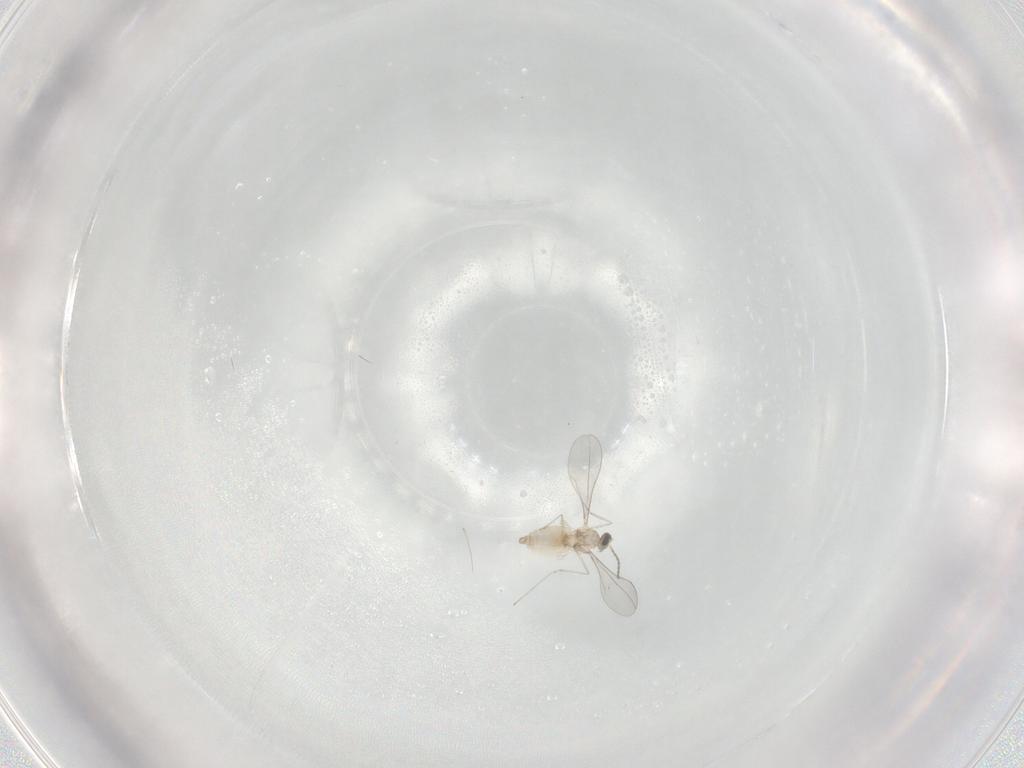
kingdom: Animalia
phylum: Arthropoda
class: Insecta
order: Diptera
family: Cecidomyiidae
